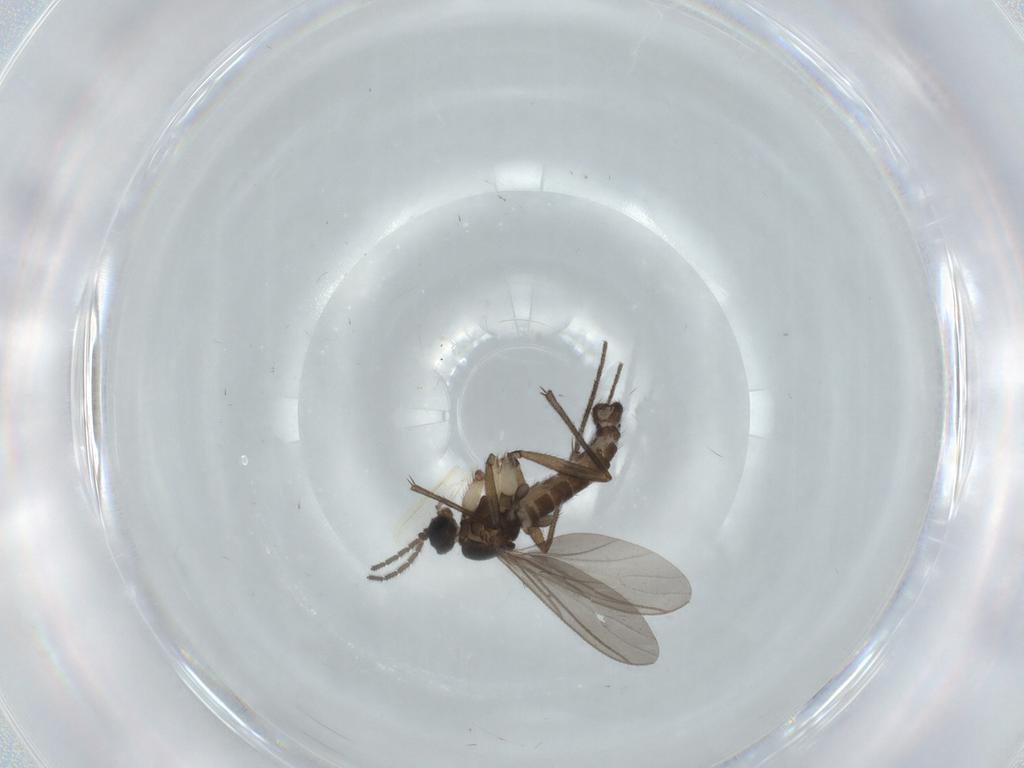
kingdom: Animalia
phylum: Arthropoda
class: Insecta
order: Diptera
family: Sciaridae
